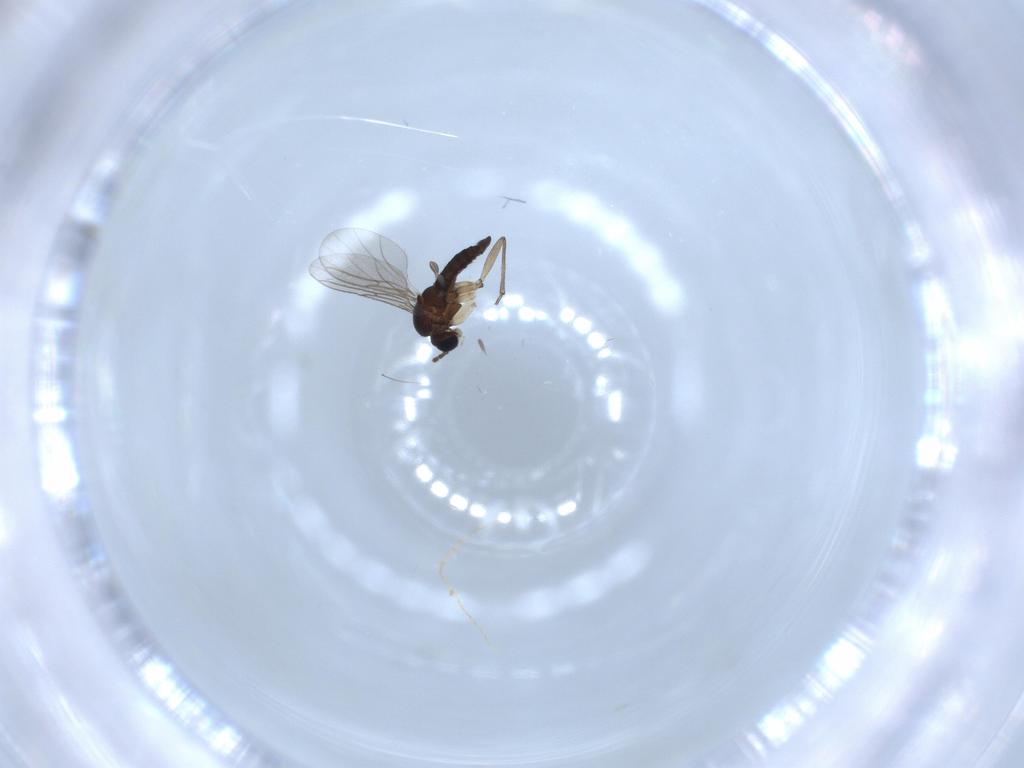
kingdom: Animalia
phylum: Arthropoda
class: Insecta
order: Diptera
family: Sciaridae
